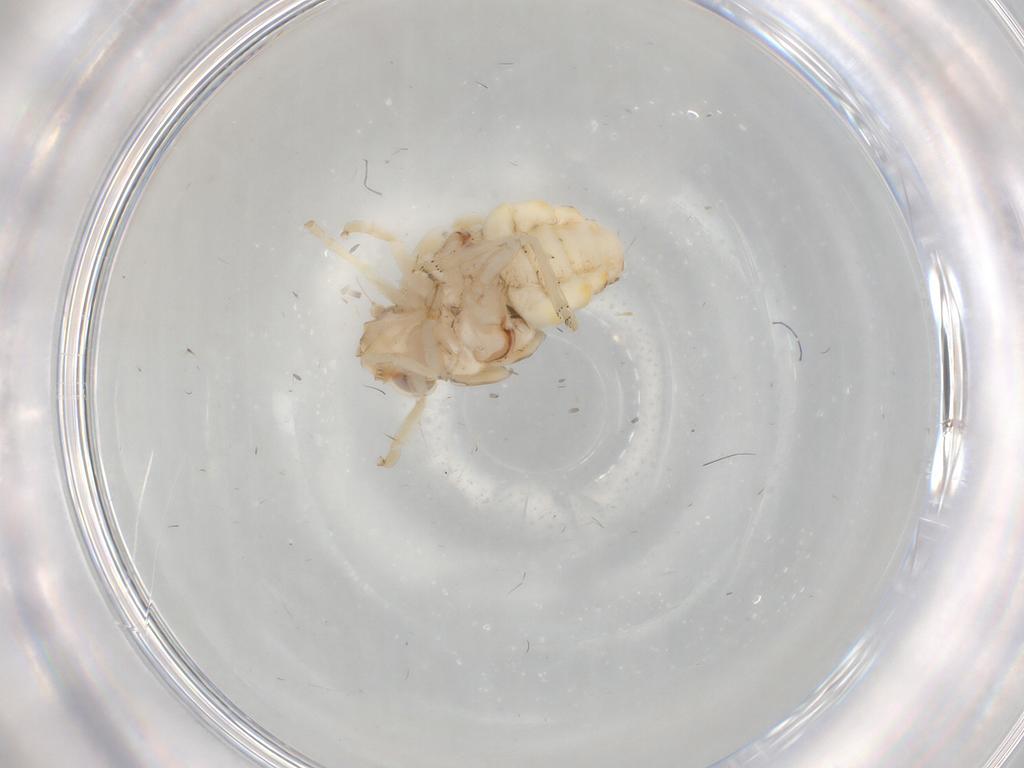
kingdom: Animalia
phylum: Arthropoda
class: Insecta
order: Hemiptera
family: Nogodinidae
